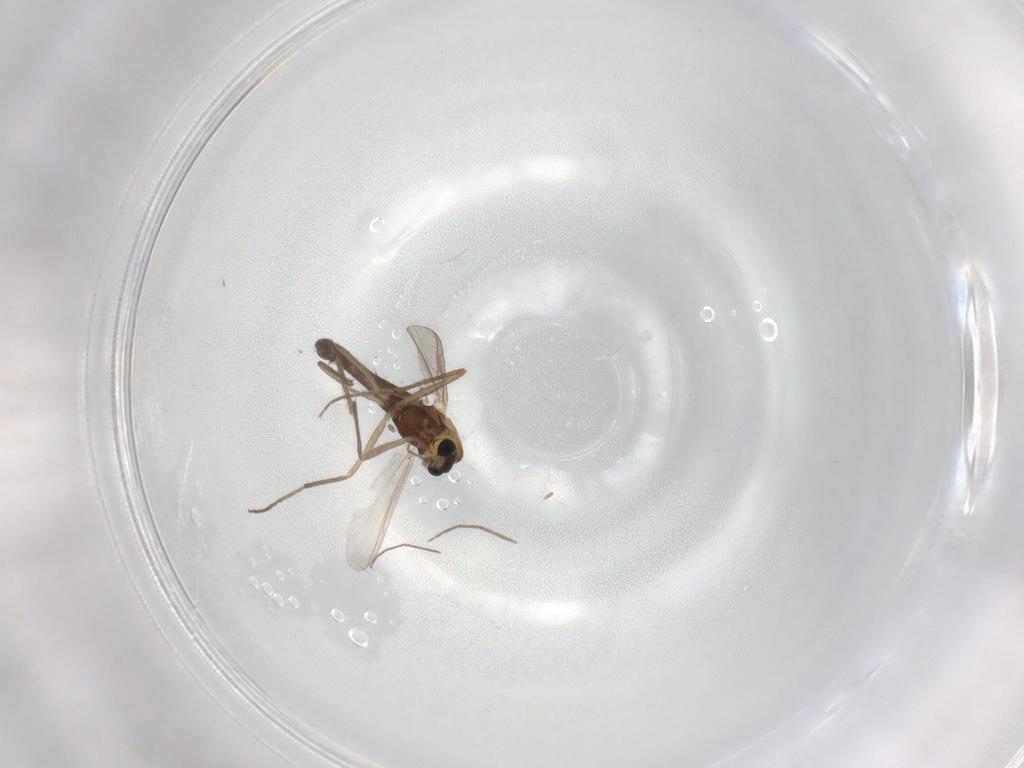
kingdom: Animalia
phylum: Arthropoda
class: Insecta
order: Diptera
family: Chironomidae
